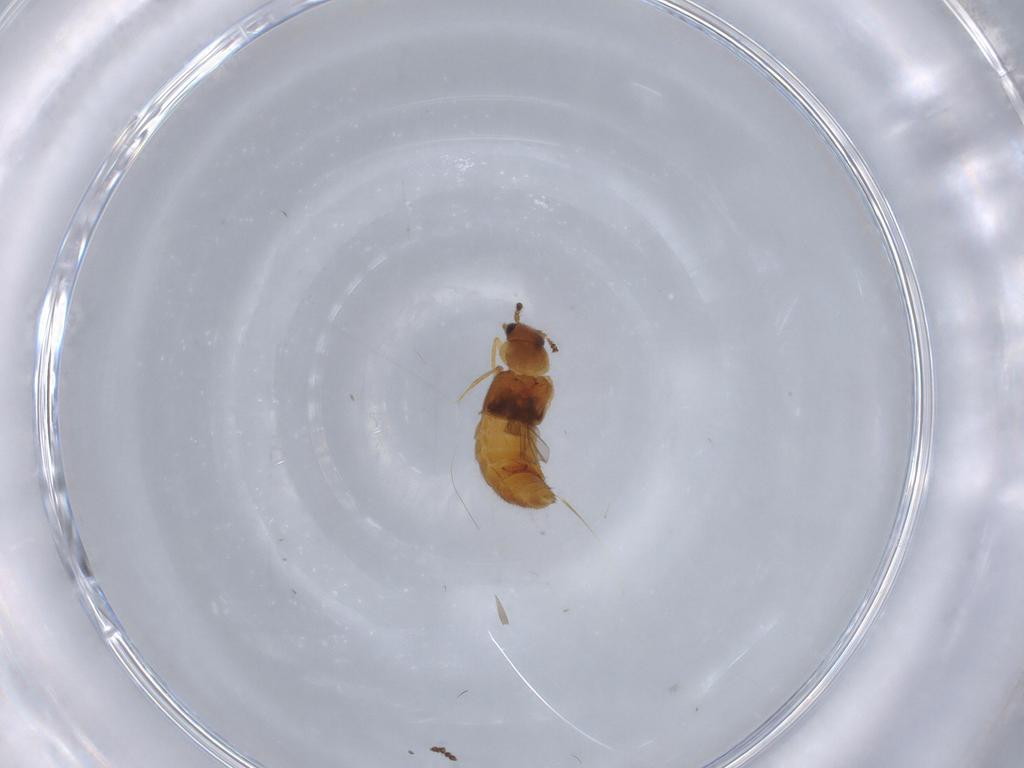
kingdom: Animalia
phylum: Arthropoda
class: Insecta
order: Coleoptera
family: Staphylinidae
